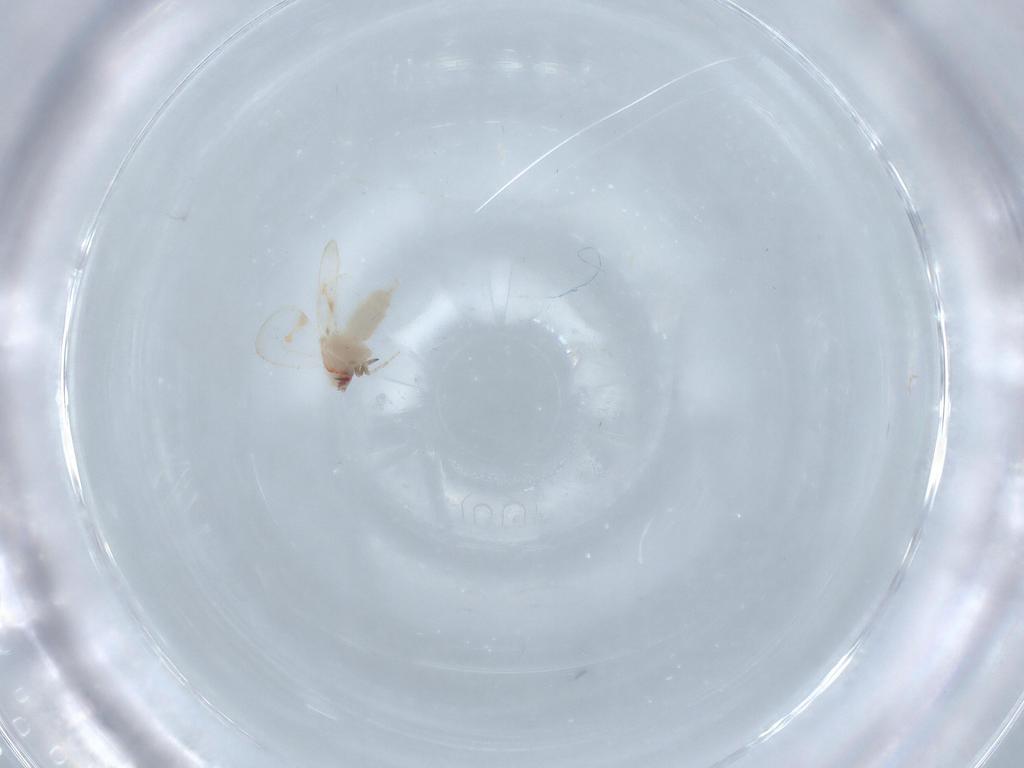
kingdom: Animalia
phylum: Arthropoda
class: Insecta
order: Hemiptera
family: Aleyrodidae
